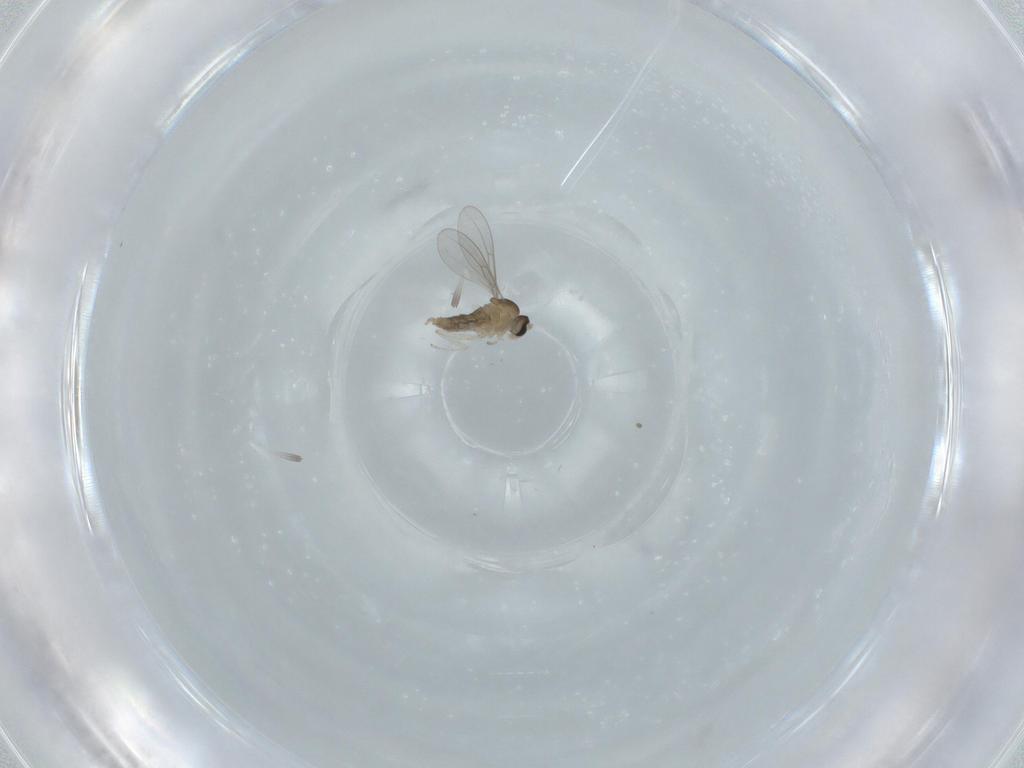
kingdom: Animalia
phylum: Arthropoda
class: Insecta
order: Diptera
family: Cecidomyiidae
